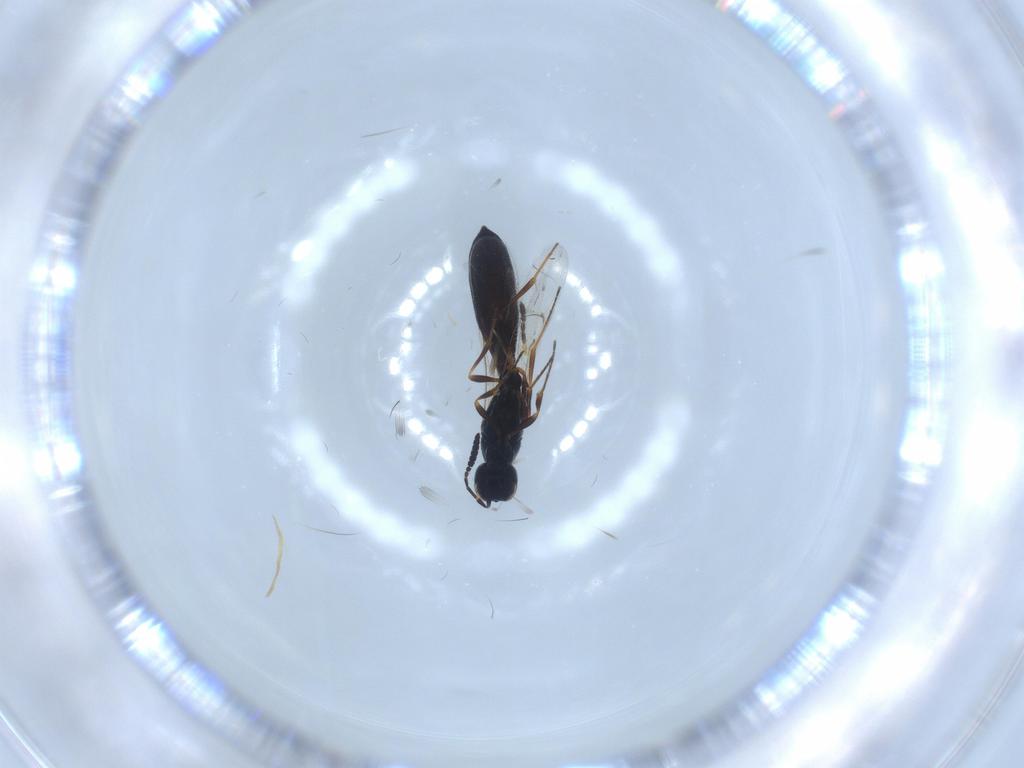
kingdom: Animalia
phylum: Arthropoda
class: Insecta
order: Hymenoptera
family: Scelionidae
